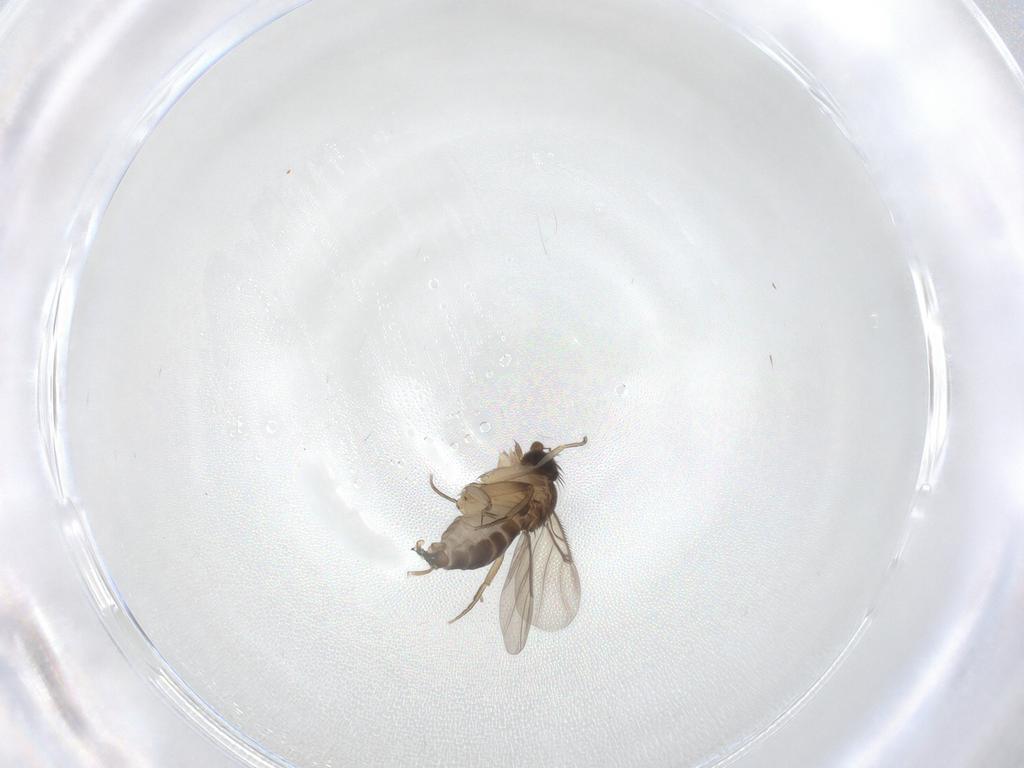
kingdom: Animalia
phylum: Arthropoda
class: Insecta
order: Diptera
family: Phoridae
